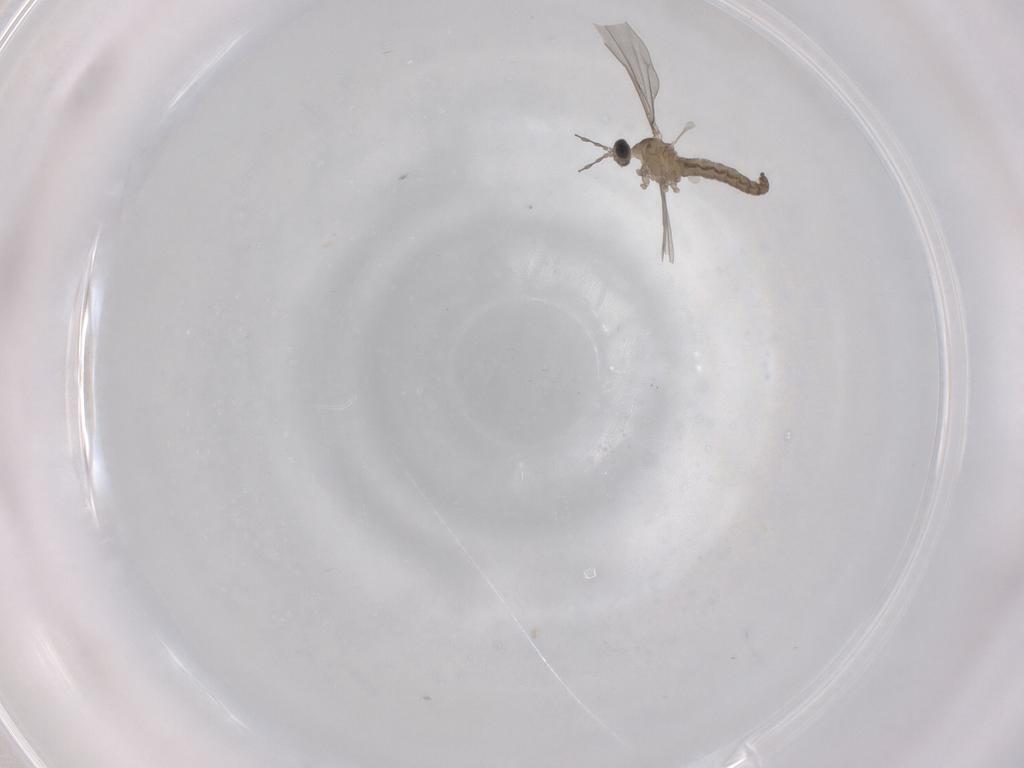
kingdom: Animalia
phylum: Arthropoda
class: Insecta
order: Diptera
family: Cecidomyiidae
